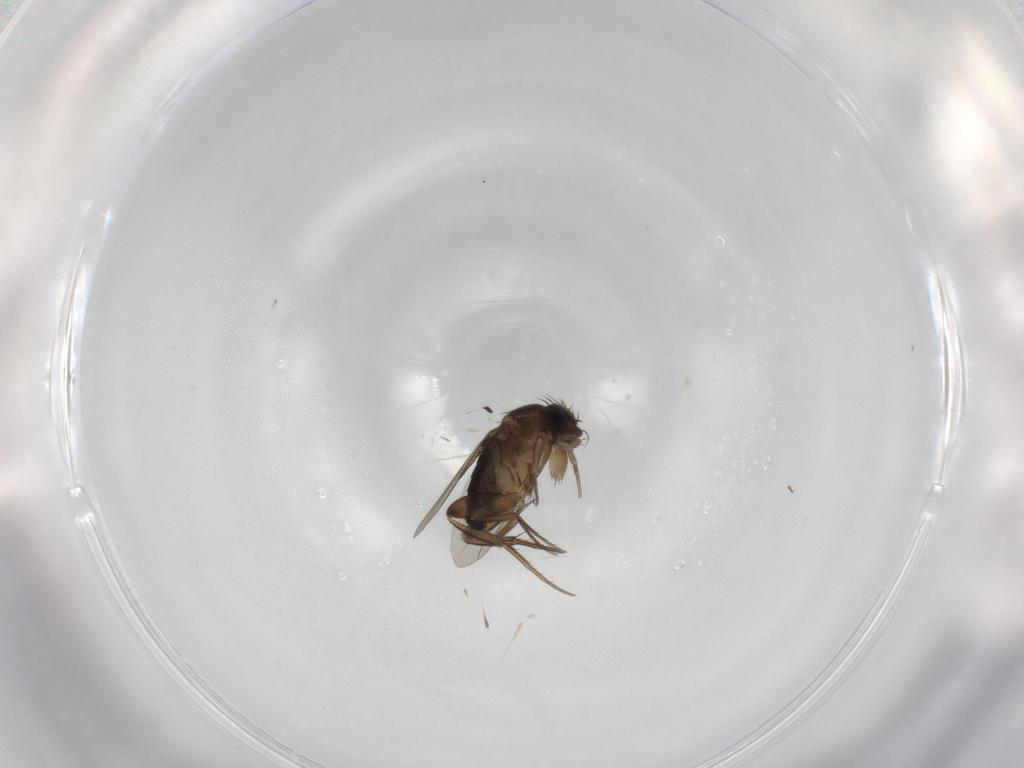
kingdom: Animalia
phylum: Arthropoda
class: Insecta
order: Diptera
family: Phoridae
